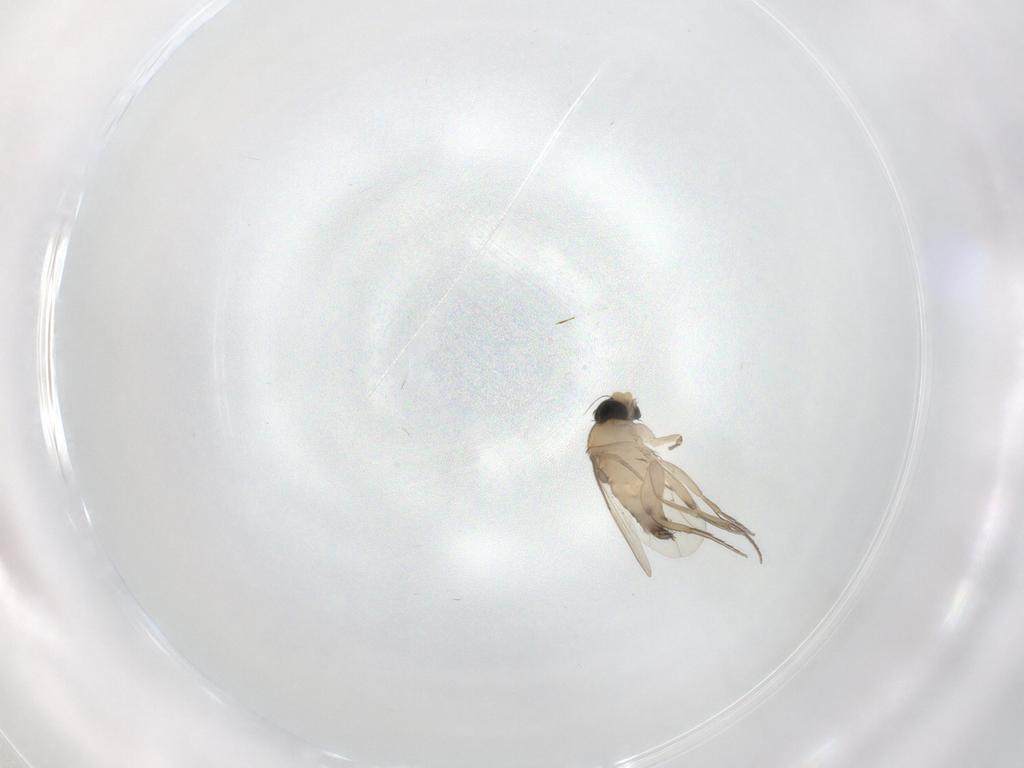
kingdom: Animalia
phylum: Arthropoda
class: Insecta
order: Diptera
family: Phoridae
